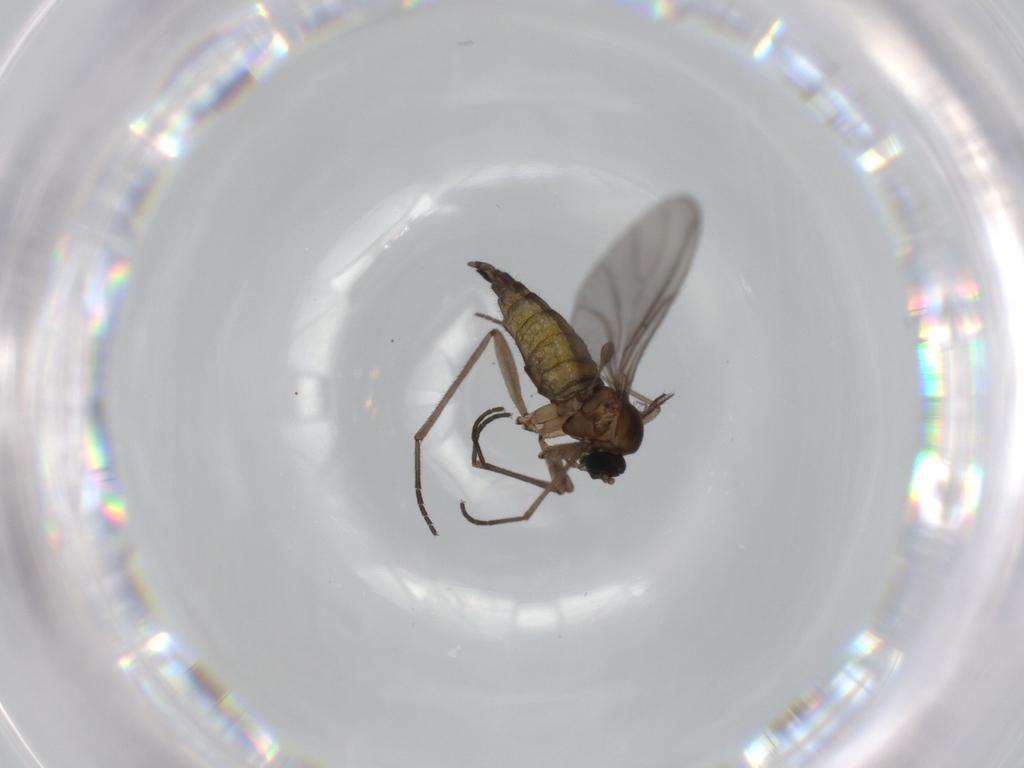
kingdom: Animalia
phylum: Arthropoda
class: Insecta
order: Diptera
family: Sciaridae
